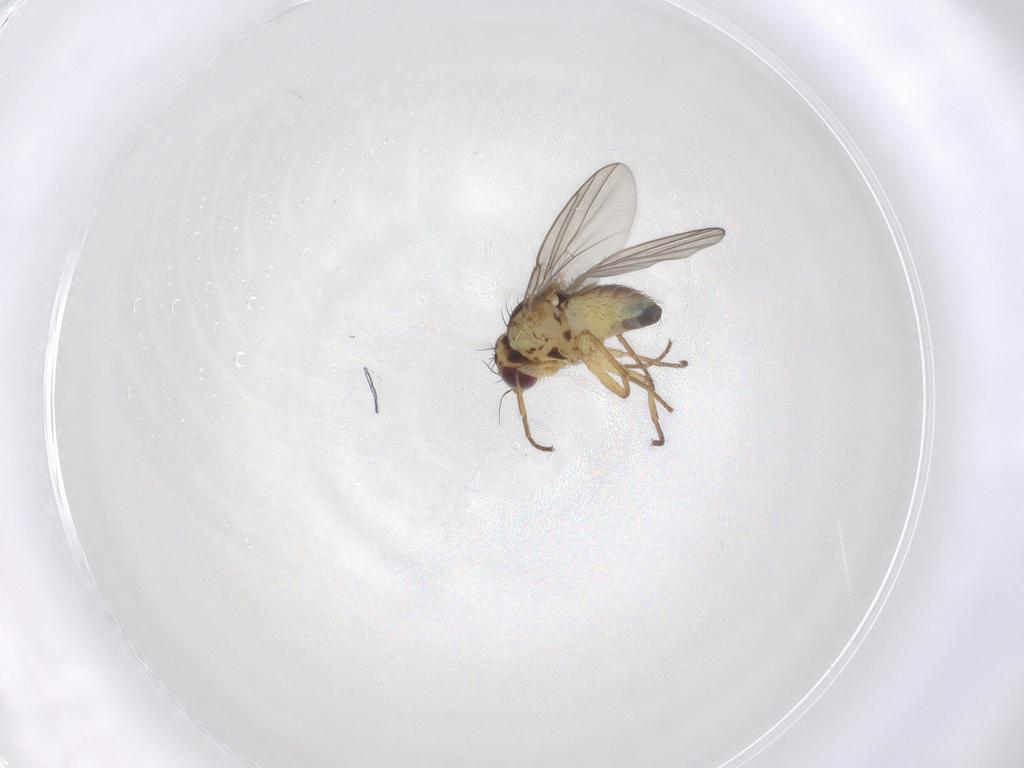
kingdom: Animalia
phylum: Arthropoda
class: Insecta
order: Diptera
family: Agromyzidae
